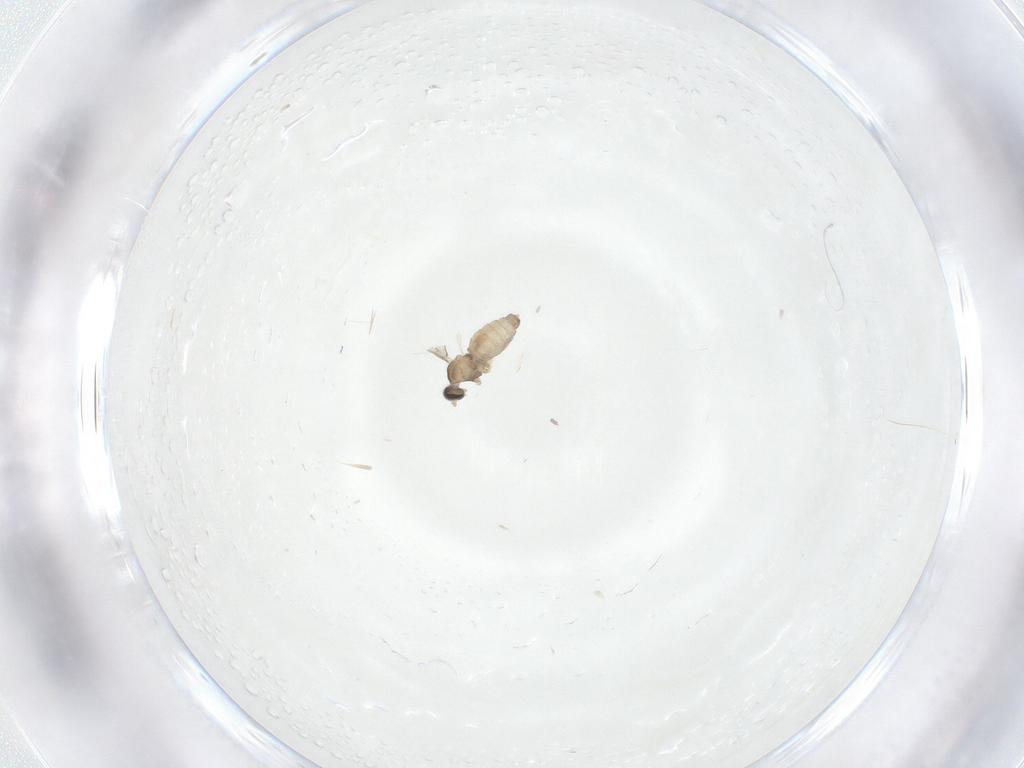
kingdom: Animalia
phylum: Arthropoda
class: Insecta
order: Diptera
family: Cecidomyiidae
